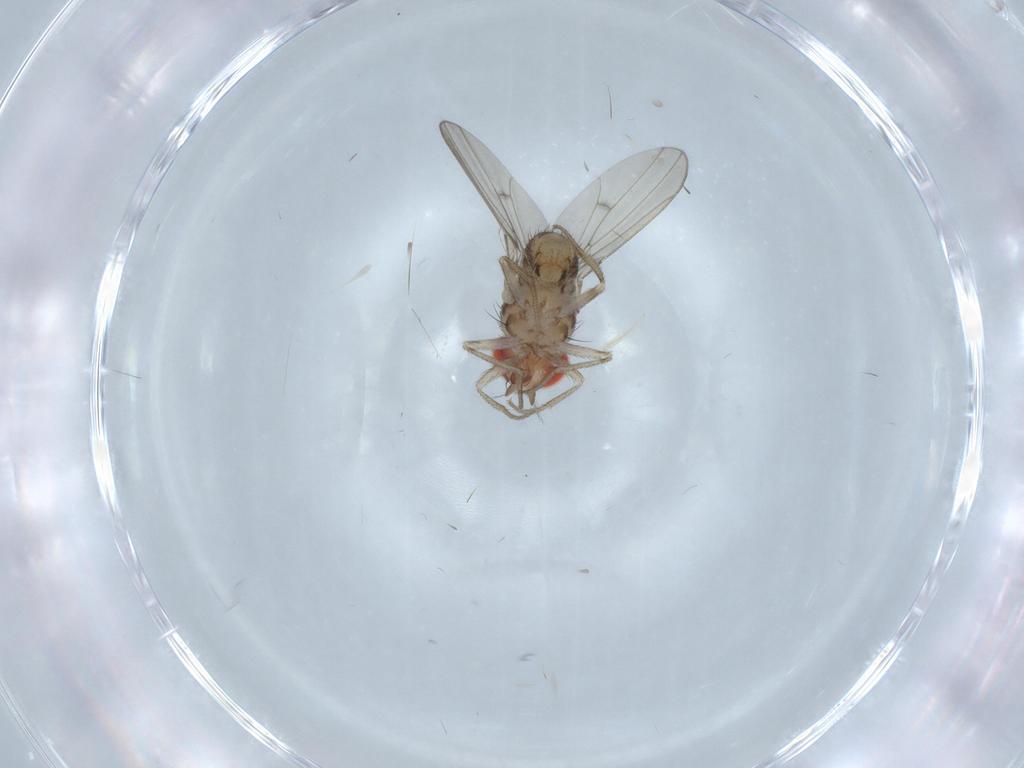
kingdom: Animalia
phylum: Arthropoda
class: Insecta
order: Diptera
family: Drosophilidae
